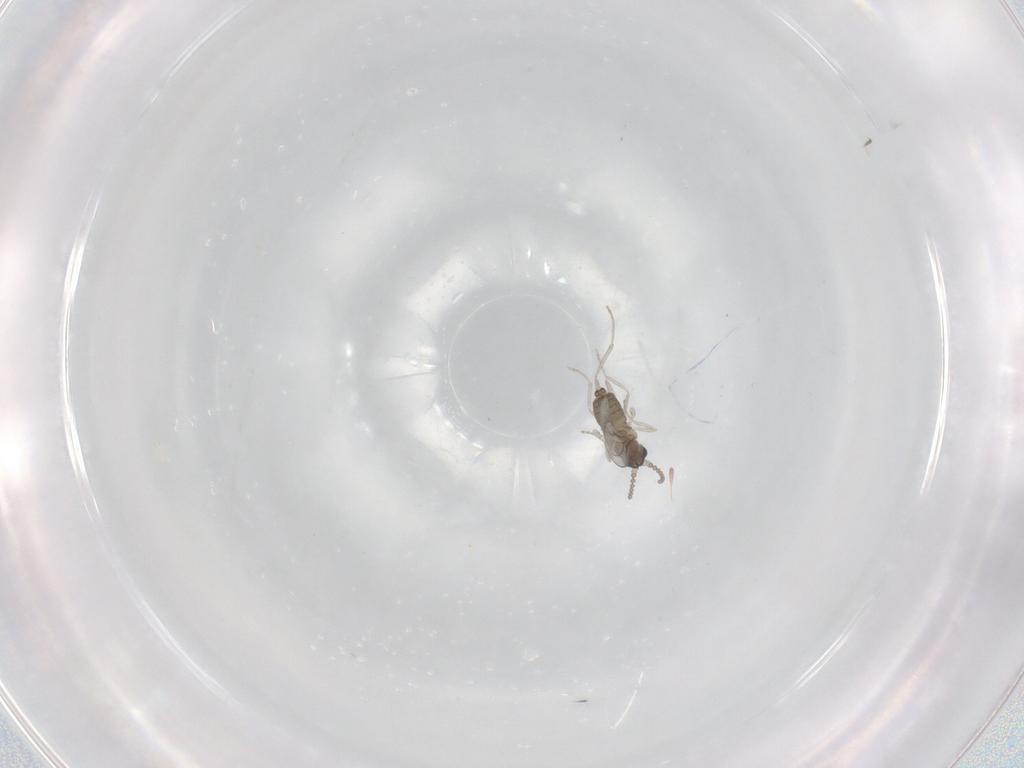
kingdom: Animalia
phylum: Arthropoda
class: Insecta
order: Diptera
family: Cecidomyiidae
